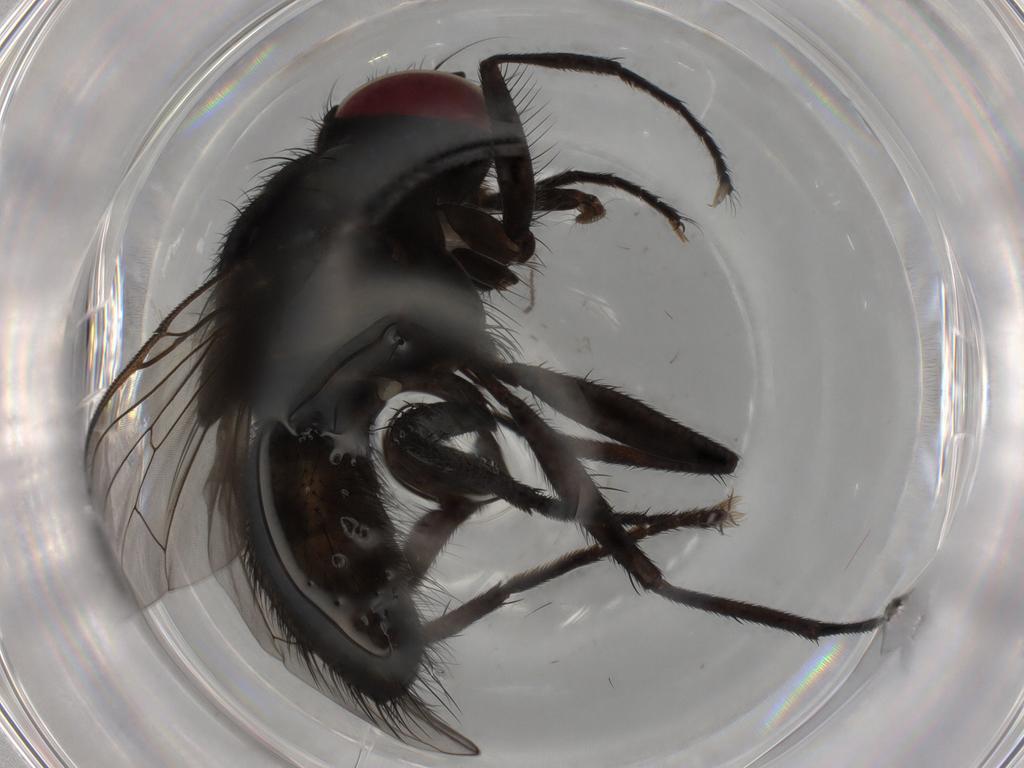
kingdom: Animalia
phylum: Arthropoda
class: Insecta
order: Diptera
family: Muscidae
